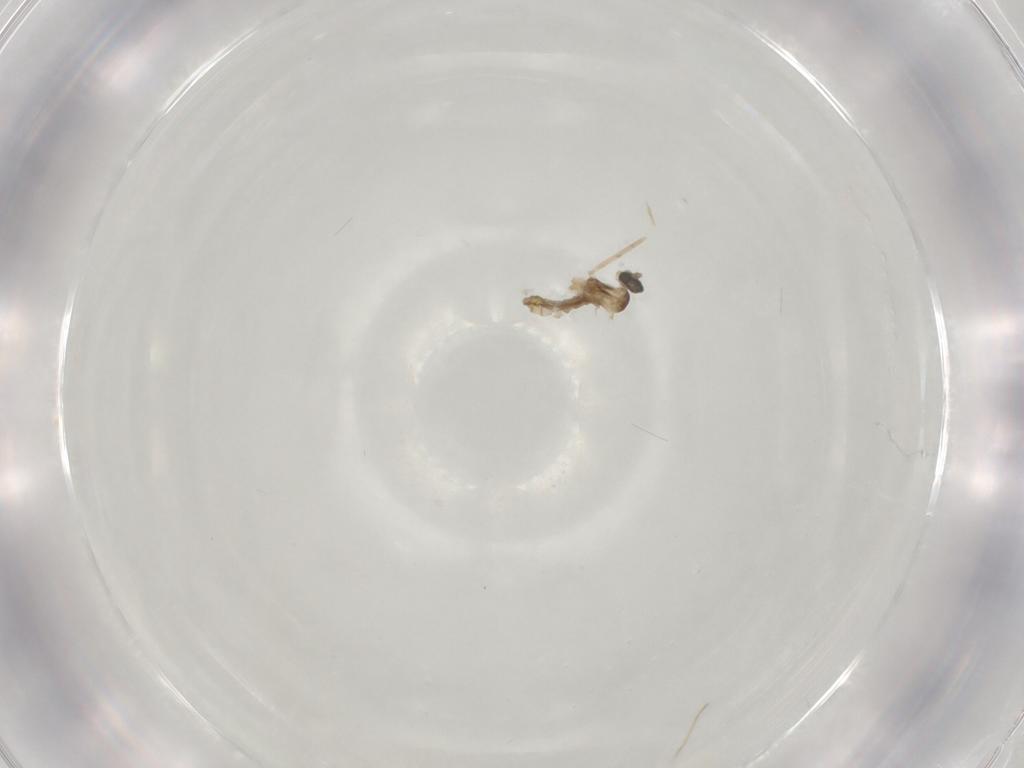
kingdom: Animalia
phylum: Arthropoda
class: Insecta
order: Diptera
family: Cecidomyiidae
